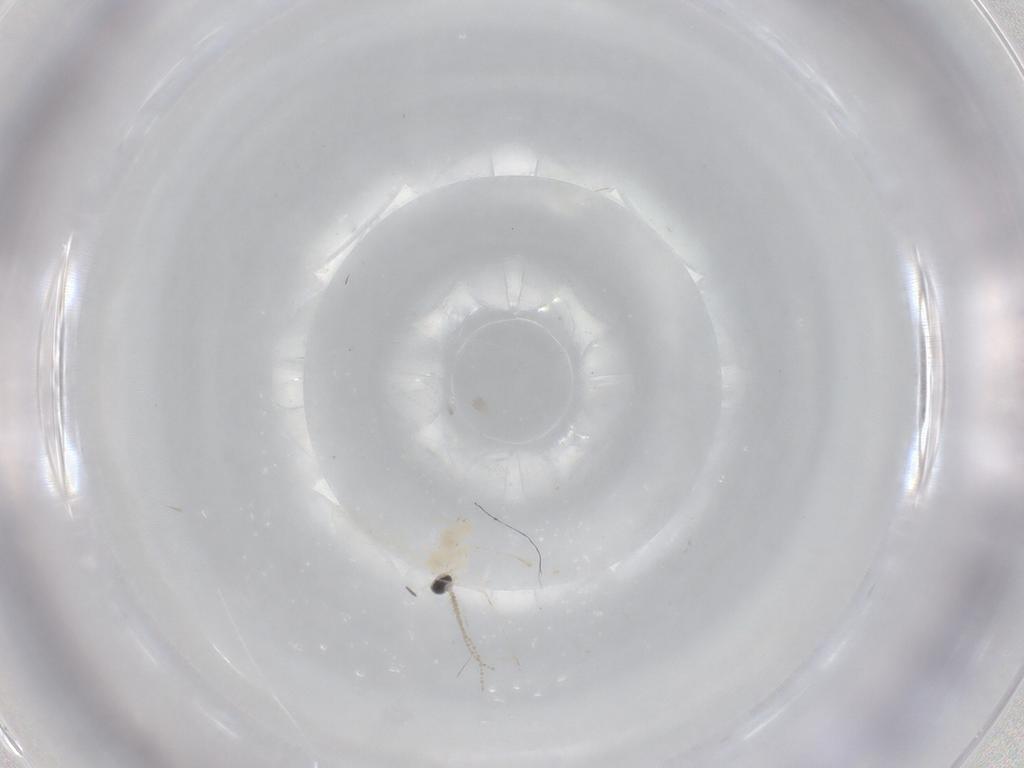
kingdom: Animalia
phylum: Arthropoda
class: Insecta
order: Diptera
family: Cecidomyiidae
